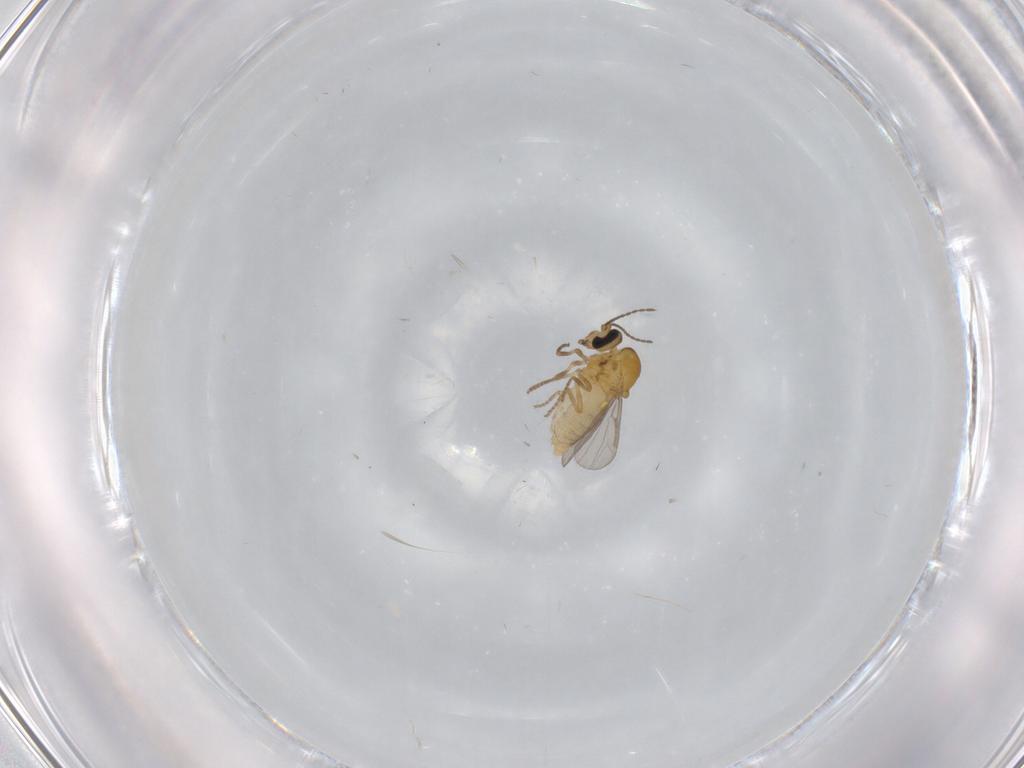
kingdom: Animalia
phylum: Arthropoda
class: Insecta
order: Diptera
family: Ceratopogonidae
